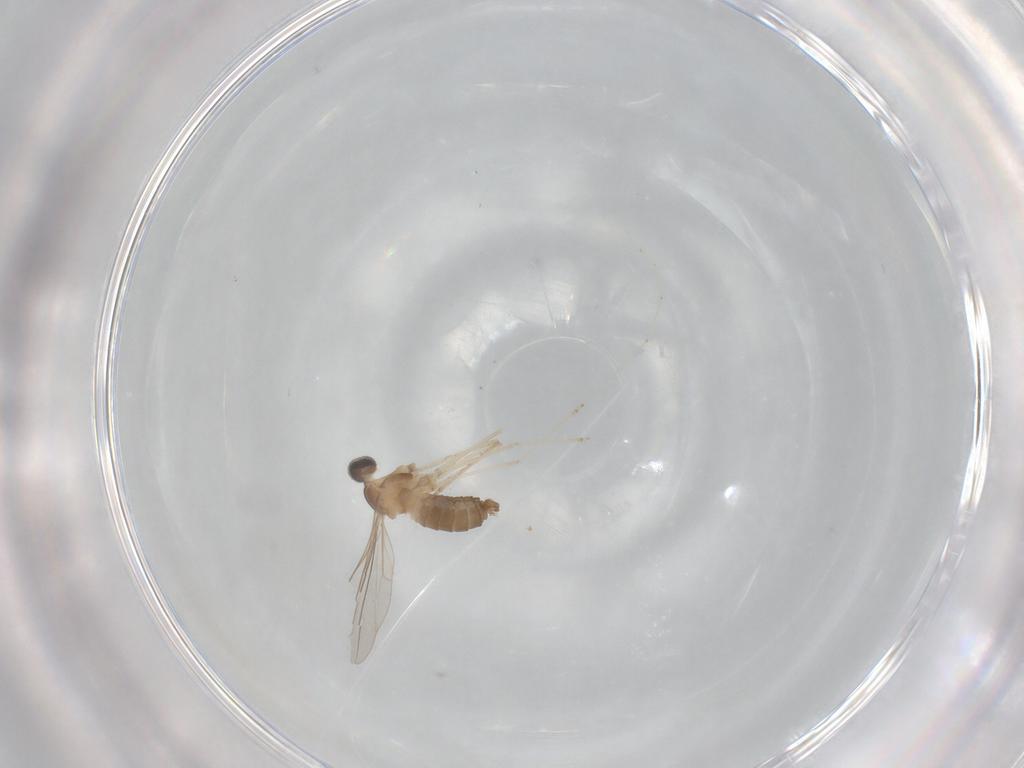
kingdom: Animalia
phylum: Arthropoda
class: Insecta
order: Diptera
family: Cecidomyiidae
